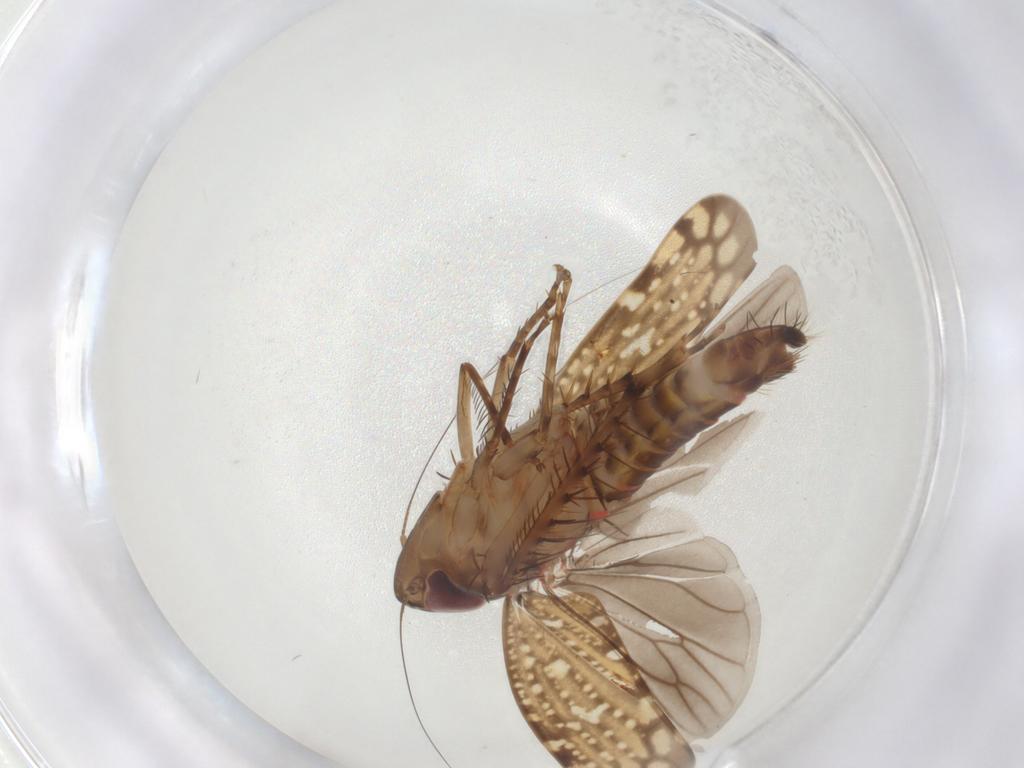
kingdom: Animalia
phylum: Arthropoda
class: Insecta
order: Hemiptera
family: Cicadellidae
